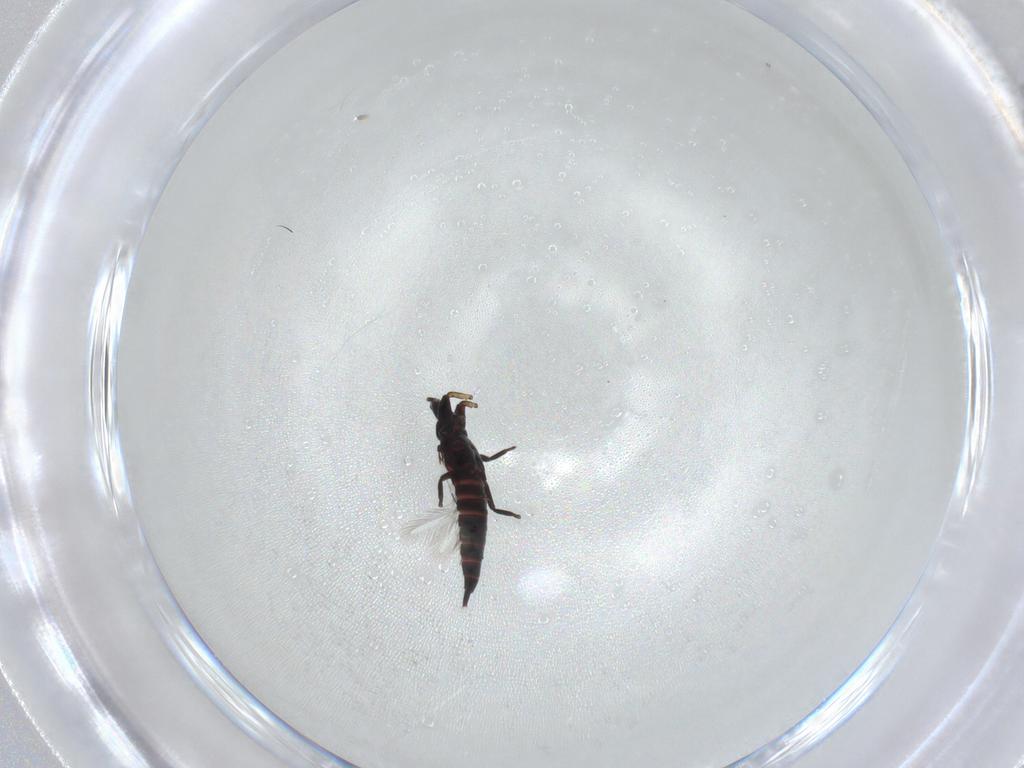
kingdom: Animalia
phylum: Arthropoda
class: Insecta
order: Thysanoptera
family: Phlaeothripidae
